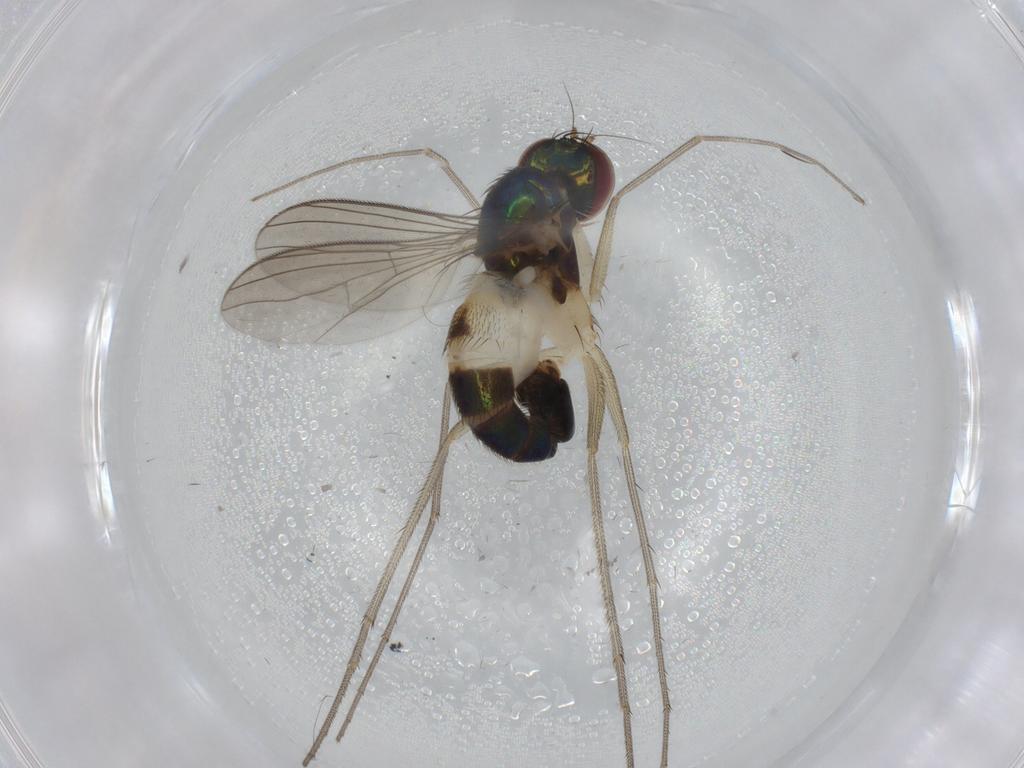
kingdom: Animalia
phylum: Arthropoda
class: Insecta
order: Diptera
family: Dolichopodidae
